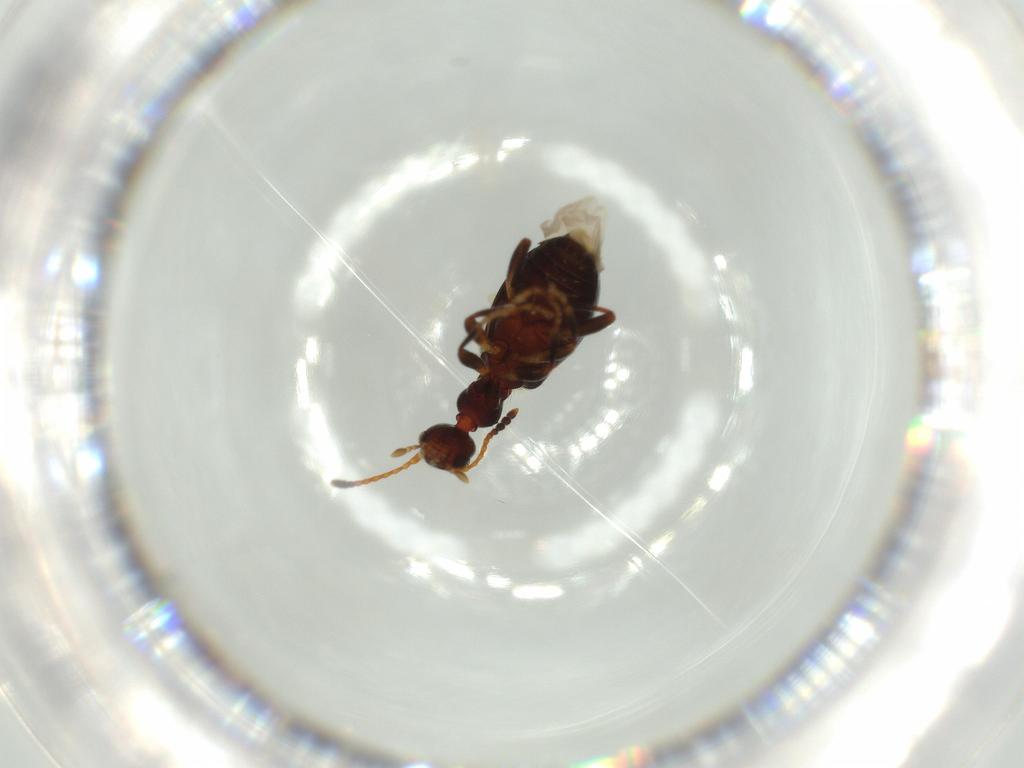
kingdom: Animalia
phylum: Arthropoda
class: Insecta
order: Coleoptera
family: Anthicidae
